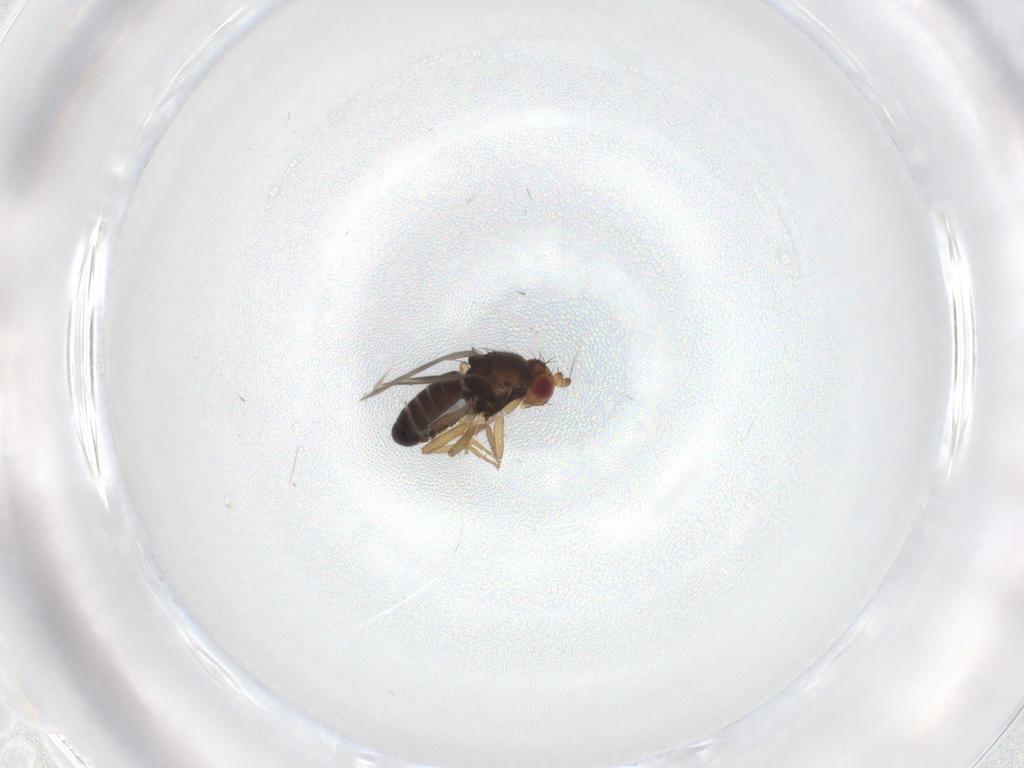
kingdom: Animalia
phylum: Arthropoda
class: Insecta
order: Diptera
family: Sphaeroceridae
